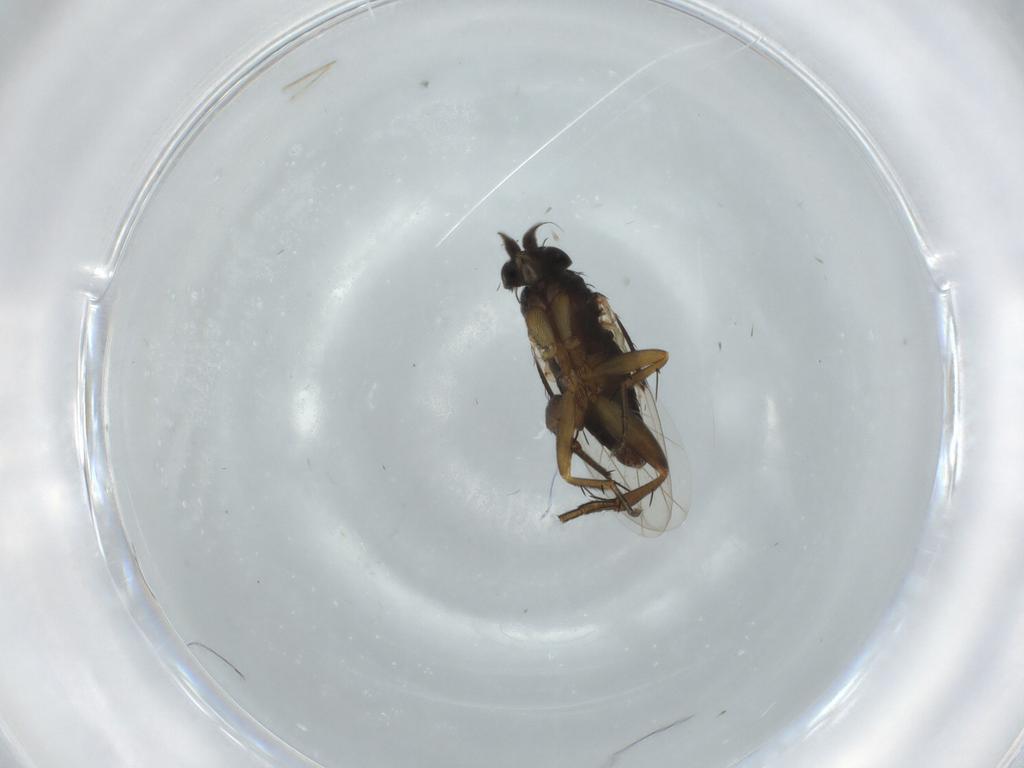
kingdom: Animalia
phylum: Arthropoda
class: Insecta
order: Diptera
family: Phoridae
